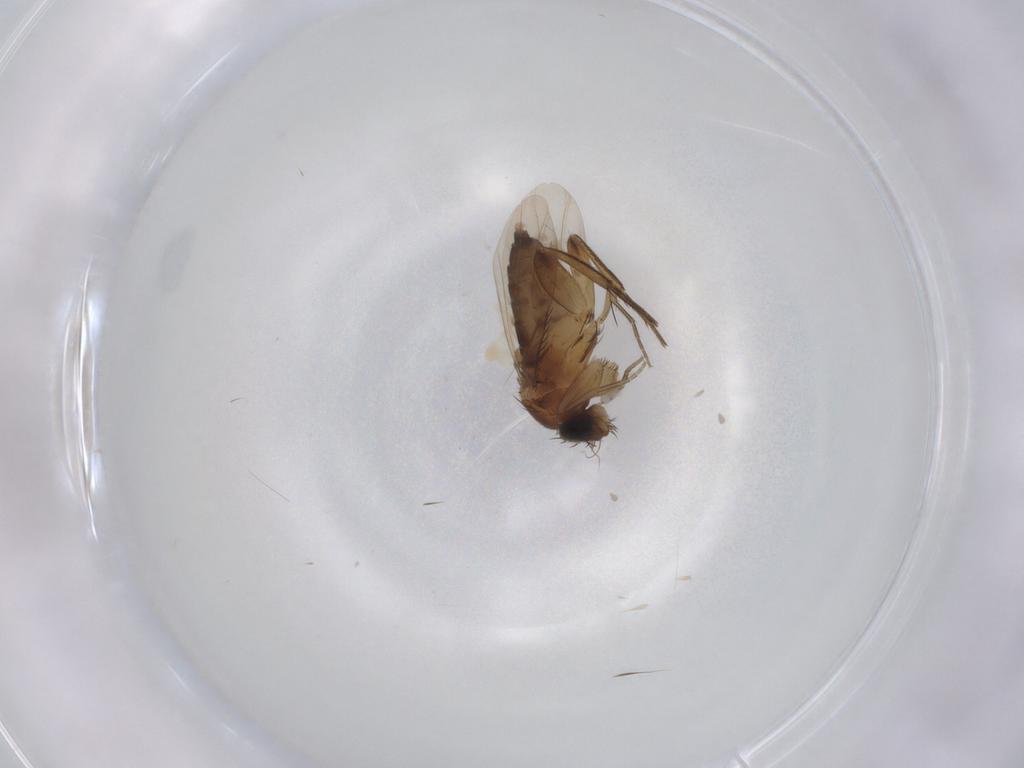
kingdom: Animalia
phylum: Arthropoda
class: Insecta
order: Diptera
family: Phoridae
